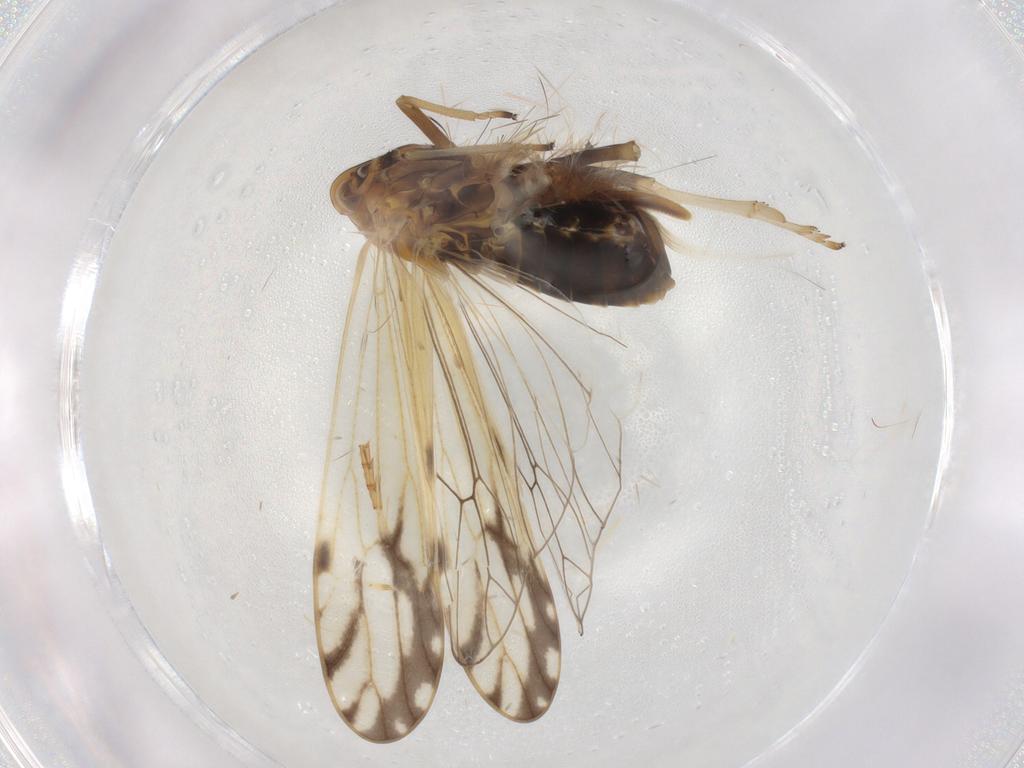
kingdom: Animalia
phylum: Arthropoda
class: Insecta
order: Hemiptera
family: Delphacidae
